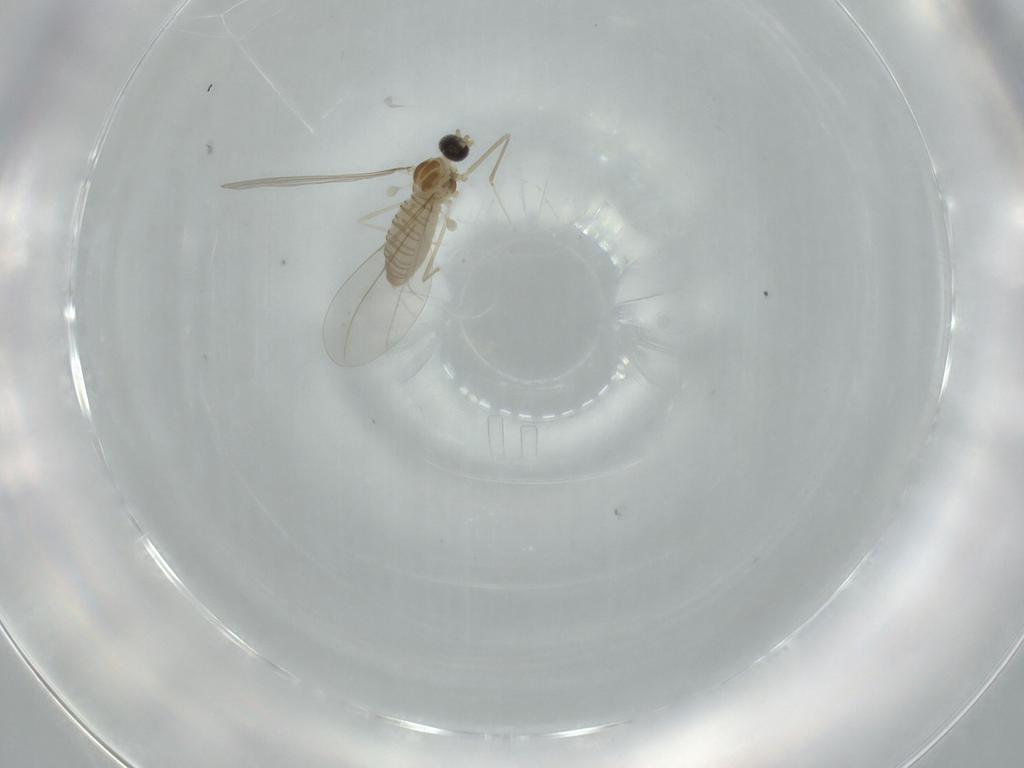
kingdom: Animalia
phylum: Arthropoda
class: Insecta
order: Diptera
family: Cecidomyiidae
